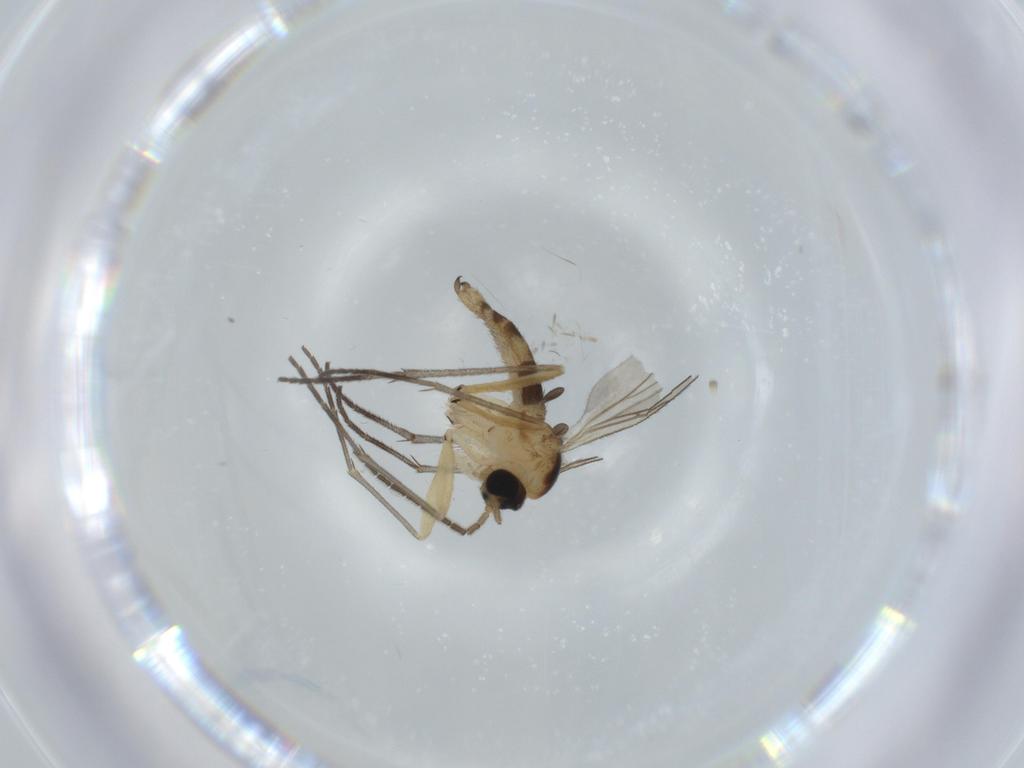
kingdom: Animalia
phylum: Arthropoda
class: Insecta
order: Diptera
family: Sciaridae
